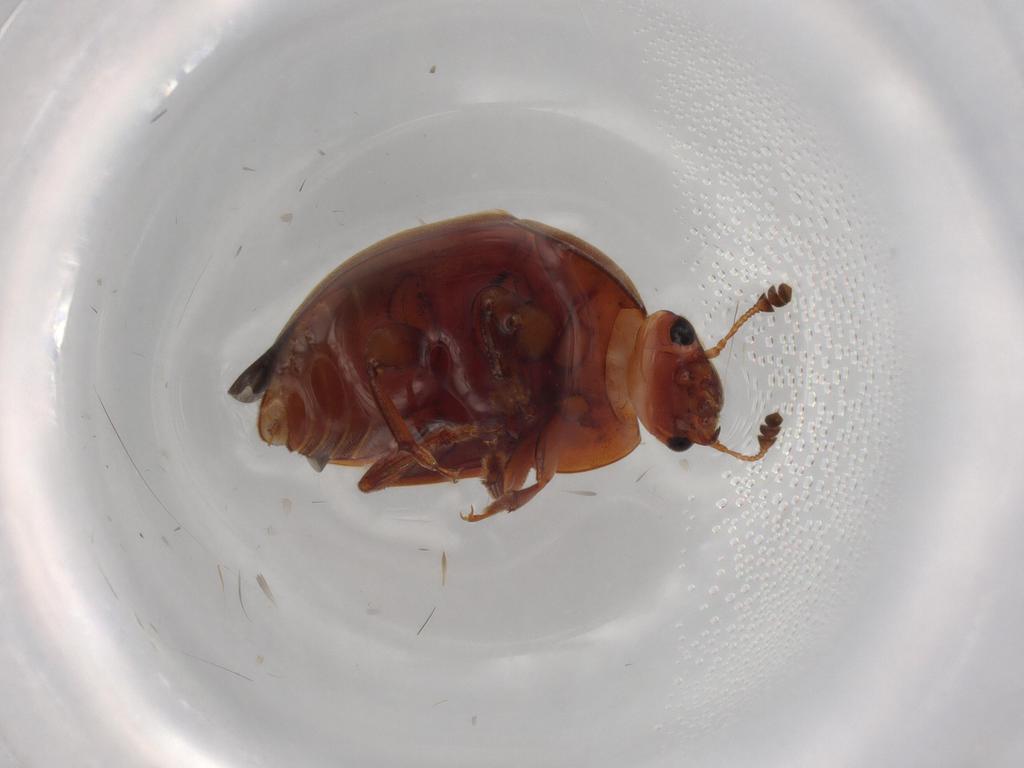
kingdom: Animalia
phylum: Arthropoda
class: Insecta
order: Coleoptera
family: Nitidulidae
